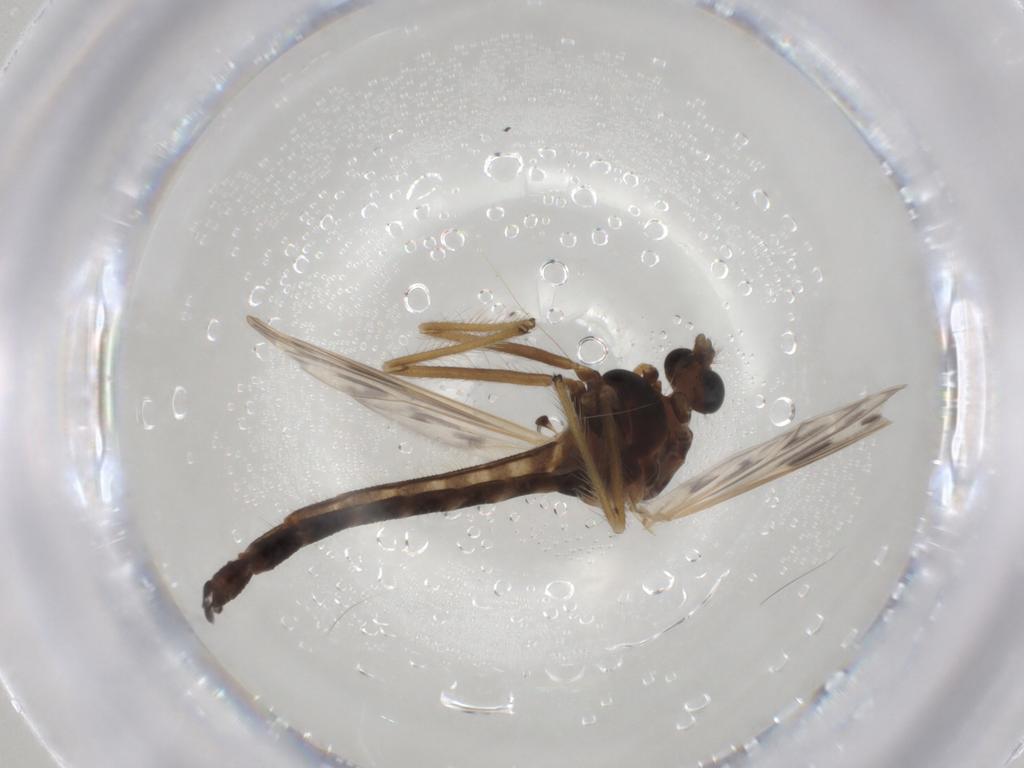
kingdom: Animalia
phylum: Arthropoda
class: Insecta
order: Diptera
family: Chironomidae
